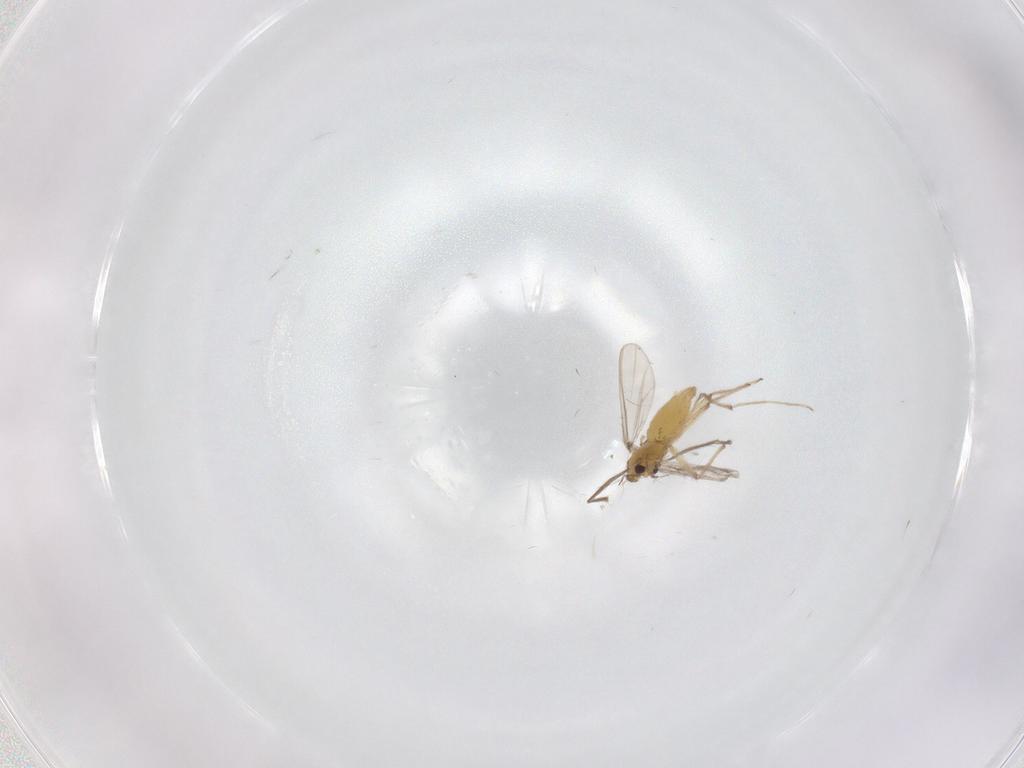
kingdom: Animalia
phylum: Arthropoda
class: Insecta
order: Diptera
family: Chironomidae
